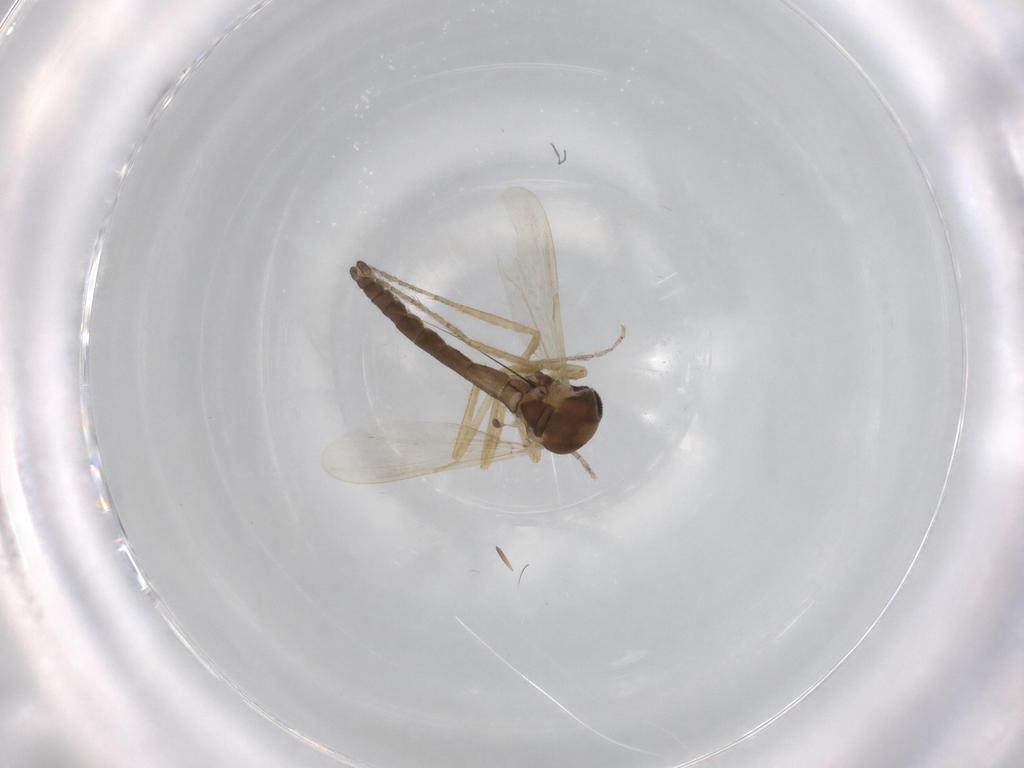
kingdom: Animalia
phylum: Arthropoda
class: Insecta
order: Diptera
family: Ceratopogonidae
